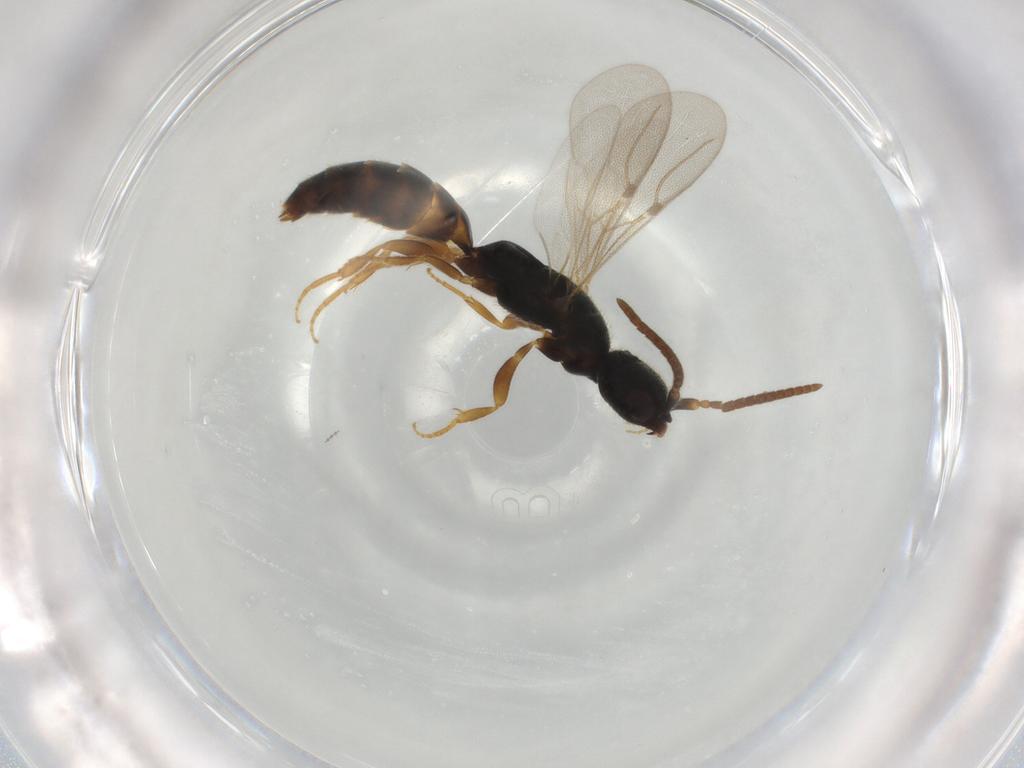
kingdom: Animalia
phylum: Arthropoda
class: Insecta
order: Hymenoptera
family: Bethylidae
